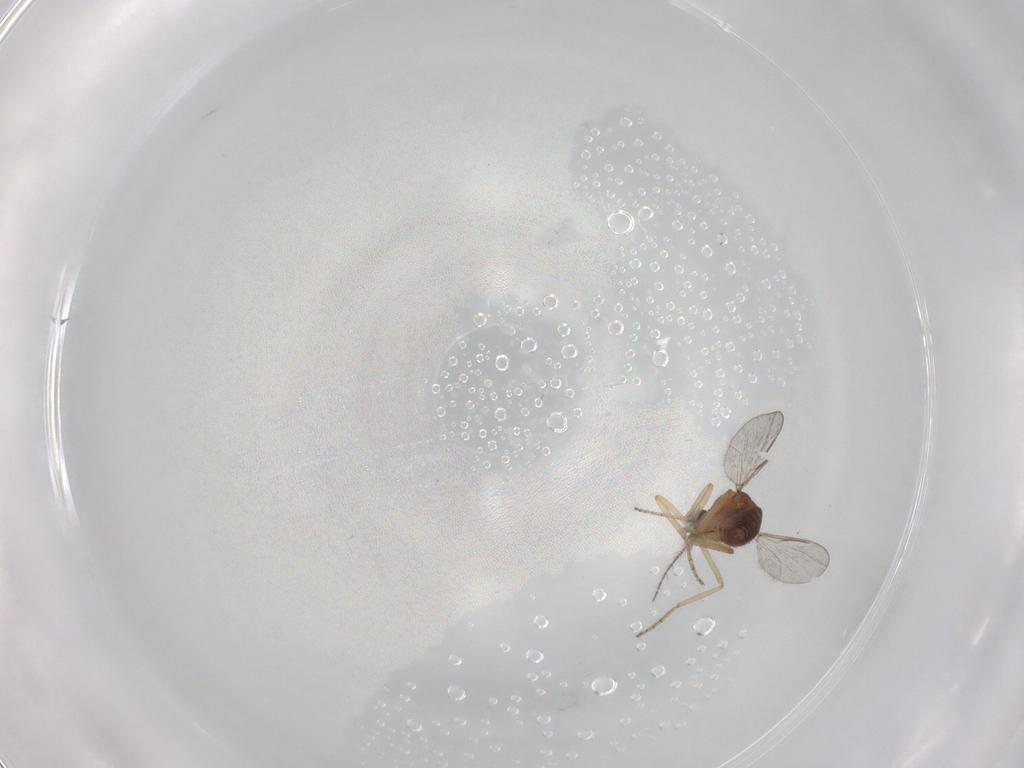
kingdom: Animalia
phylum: Arthropoda
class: Insecta
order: Diptera
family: Ceratopogonidae
